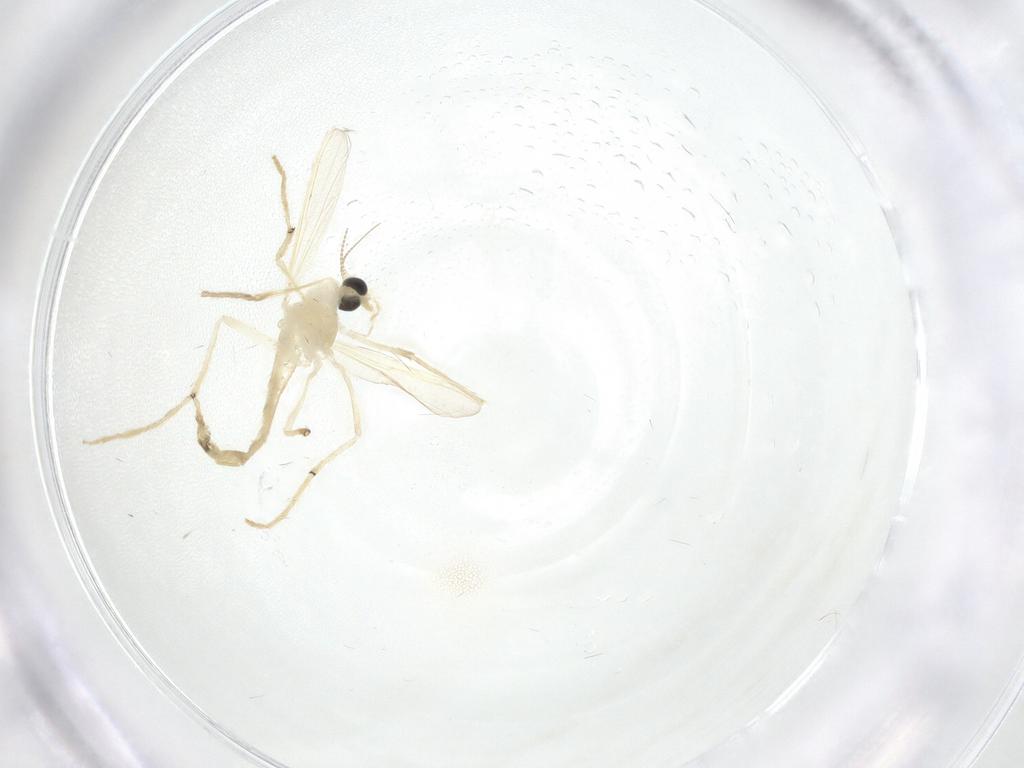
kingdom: Animalia
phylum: Arthropoda
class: Insecta
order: Diptera
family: Chironomidae
